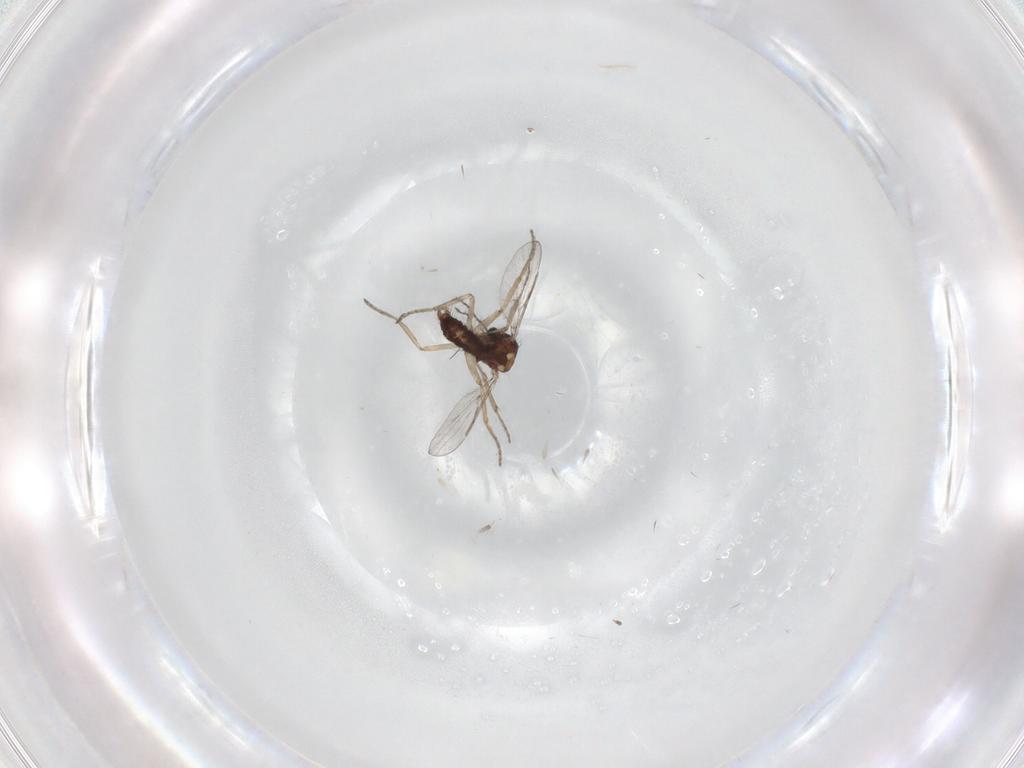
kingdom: Animalia
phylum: Arthropoda
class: Insecta
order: Diptera
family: Ceratopogonidae
